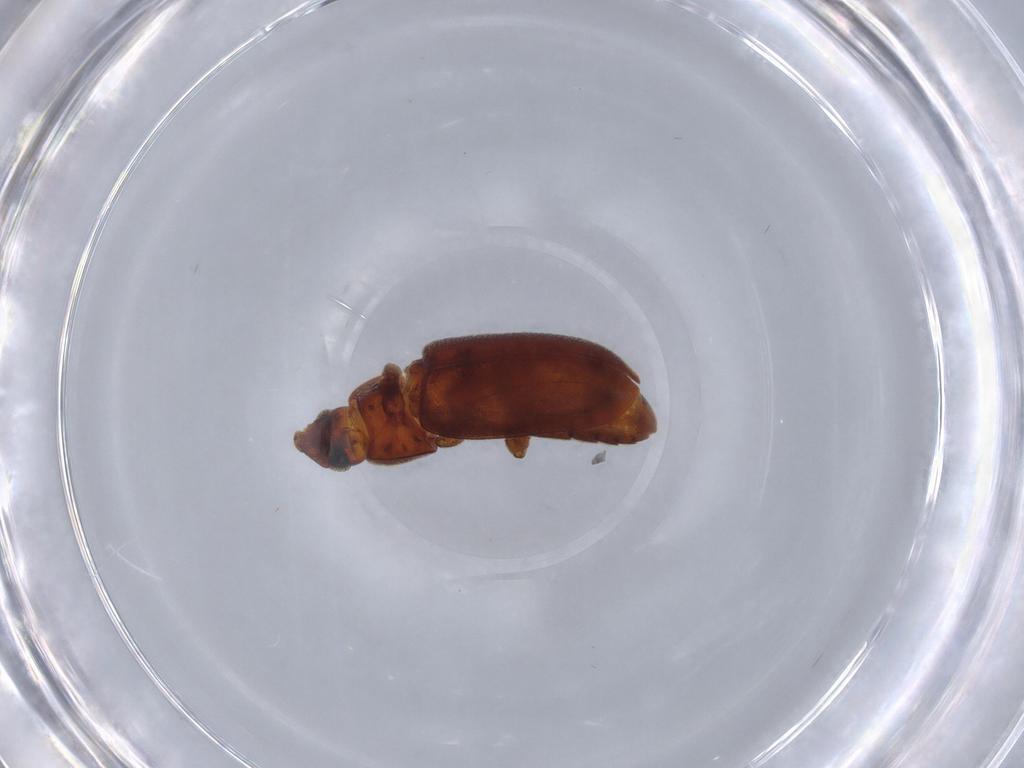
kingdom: Animalia
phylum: Arthropoda
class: Insecta
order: Coleoptera
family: Elateridae
